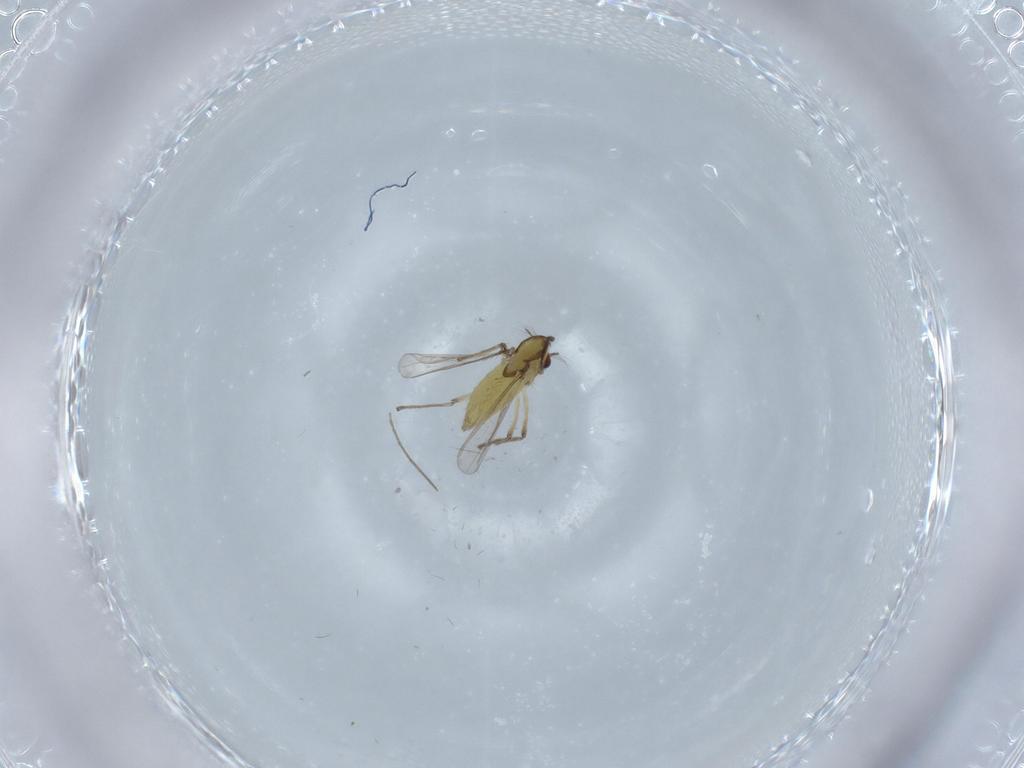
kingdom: Animalia
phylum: Arthropoda
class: Insecta
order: Diptera
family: Chironomidae
